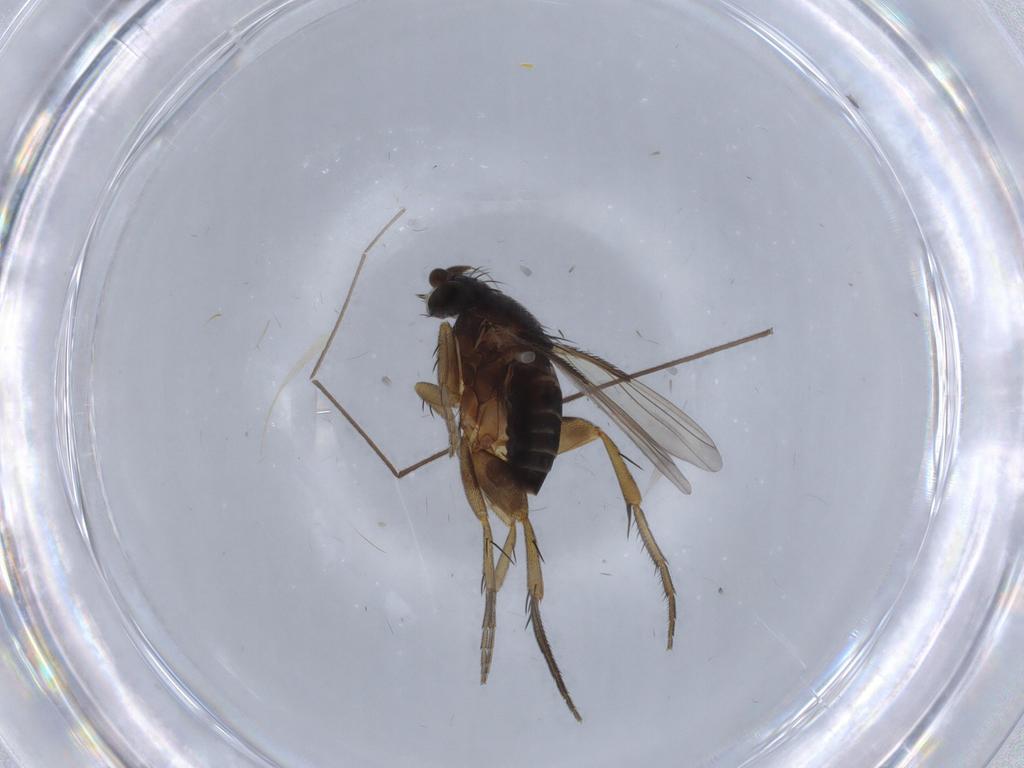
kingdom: Animalia
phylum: Arthropoda
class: Insecta
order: Diptera
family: Chironomidae
